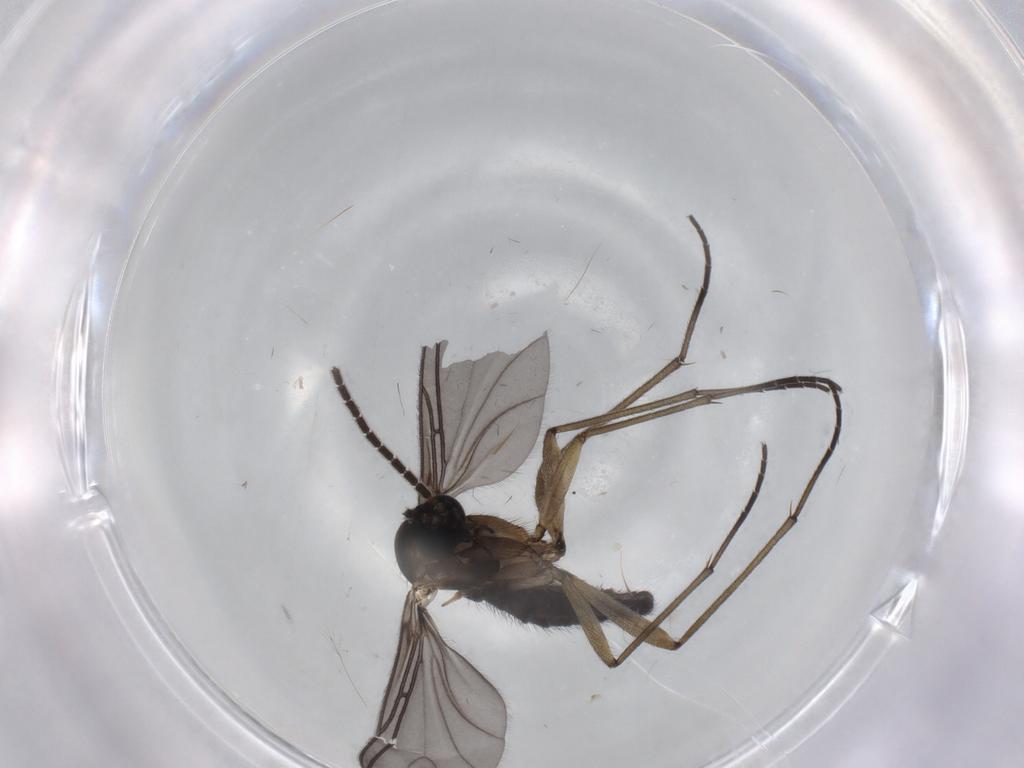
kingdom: Animalia
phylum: Arthropoda
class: Insecta
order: Diptera
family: Sciaridae
